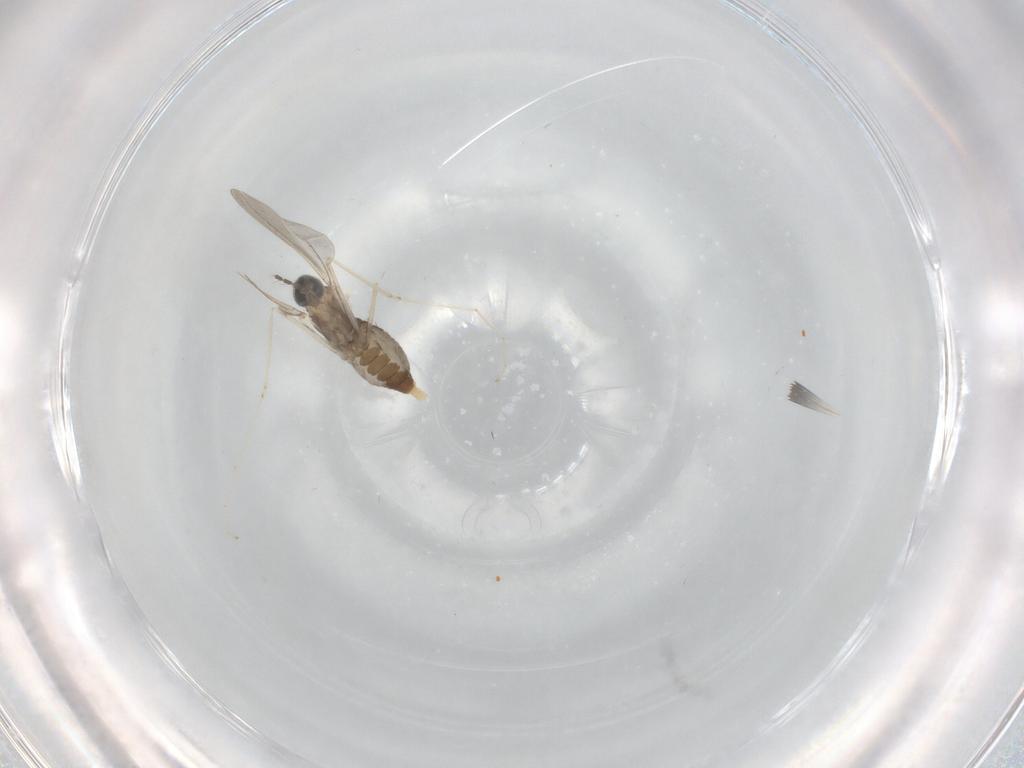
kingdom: Animalia
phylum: Arthropoda
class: Insecta
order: Diptera
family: Cecidomyiidae
